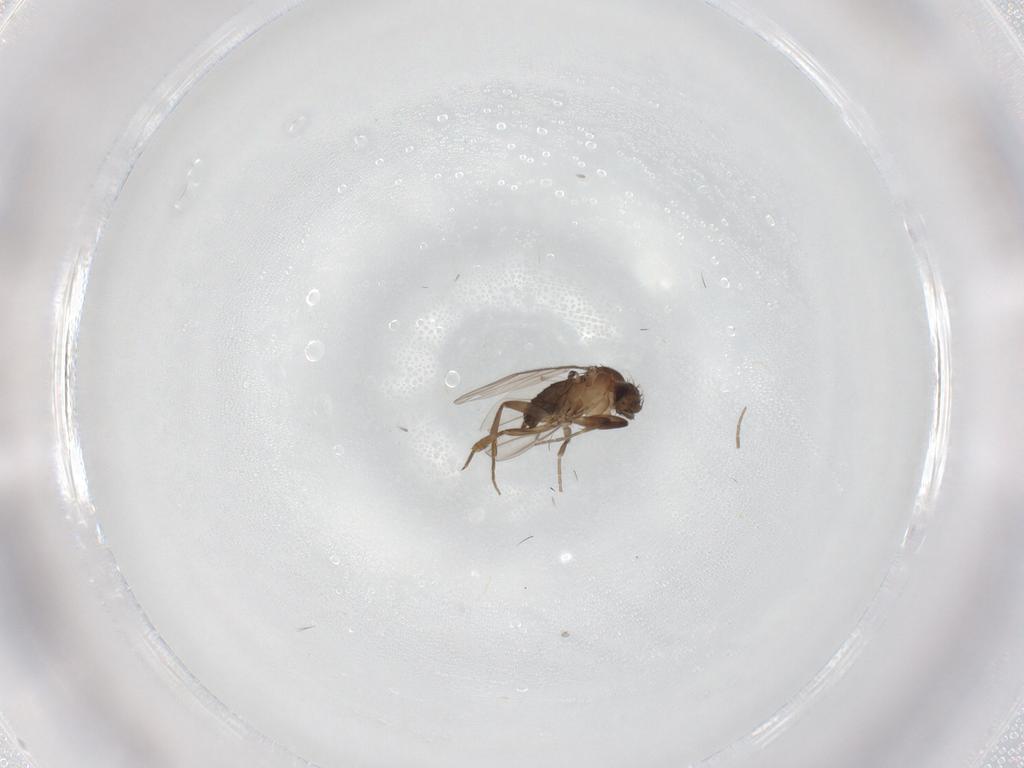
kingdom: Animalia
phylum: Arthropoda
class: Insecta
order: Diptera
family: Phoridae
